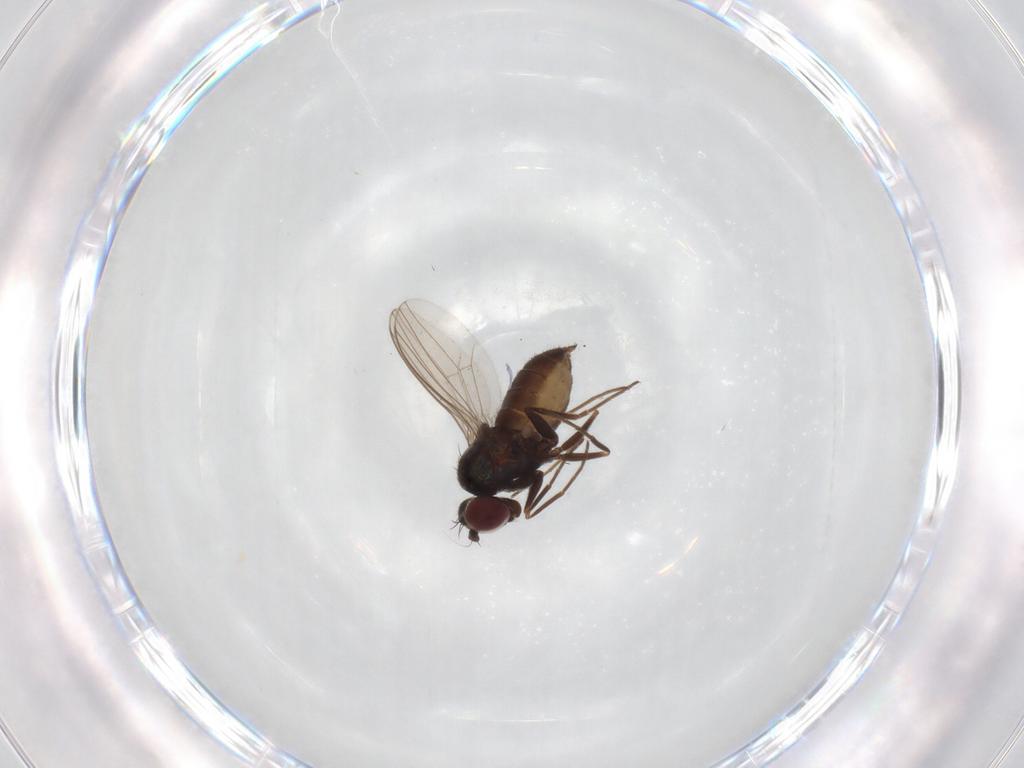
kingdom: Animalia
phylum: Arthropoda
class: Insecta
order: Diptera
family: Dolichopodidae
